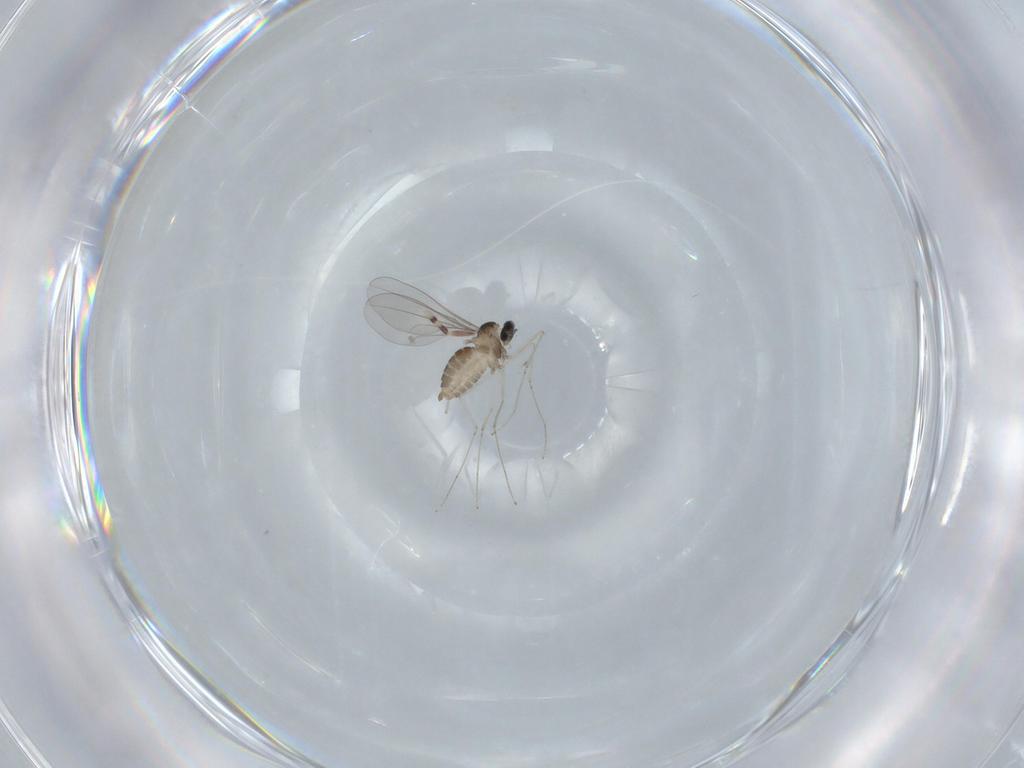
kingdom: Animalia
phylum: Arthropoda
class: Insecta
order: Diptera
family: Cecidomyiidae
